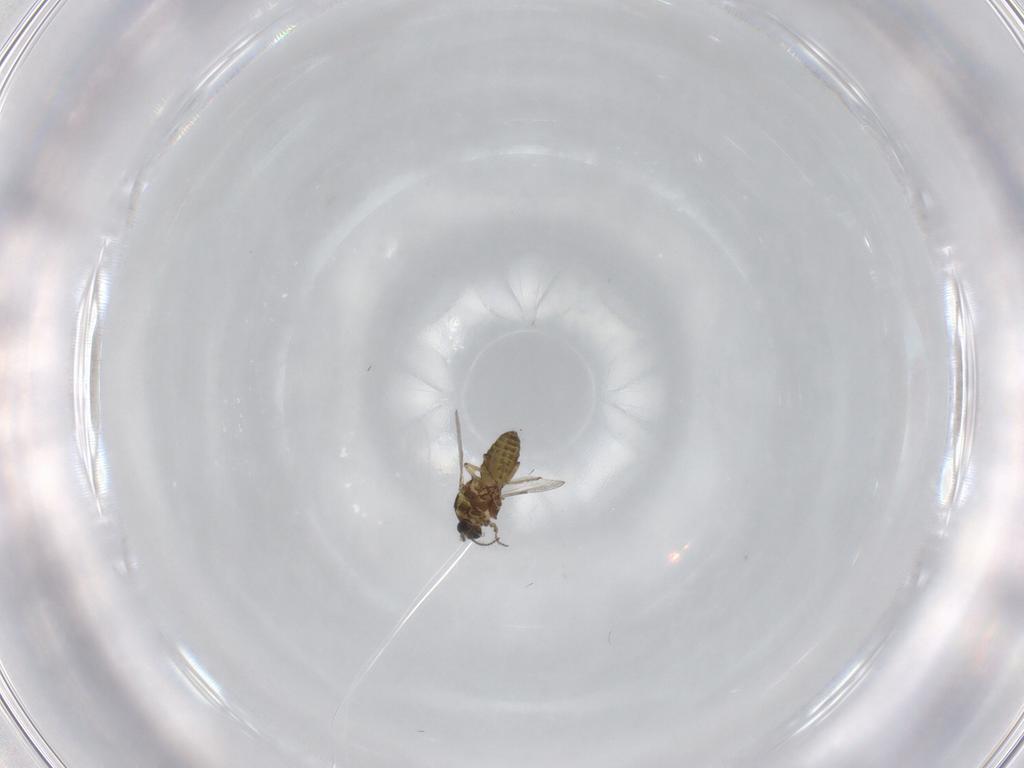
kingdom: Animalia
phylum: Arthropoda
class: Insecta
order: Diptera
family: Ceratopogonidae
